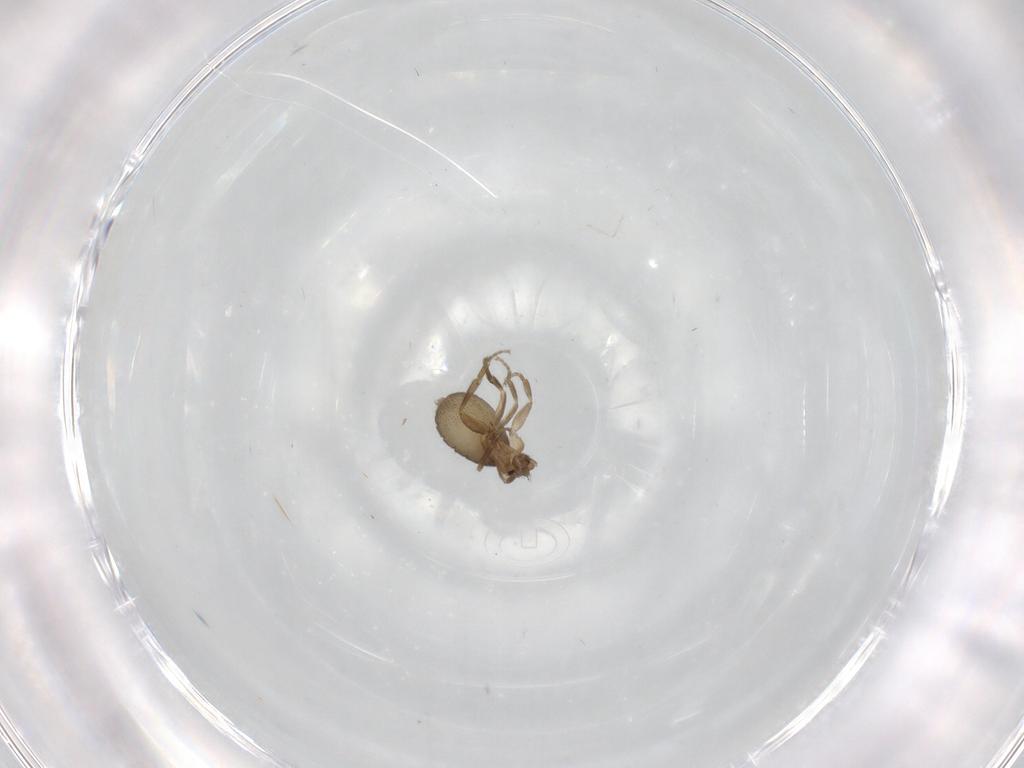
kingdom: Animalia
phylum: Arthropoda
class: Insecta
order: Diptera
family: Phoridae
